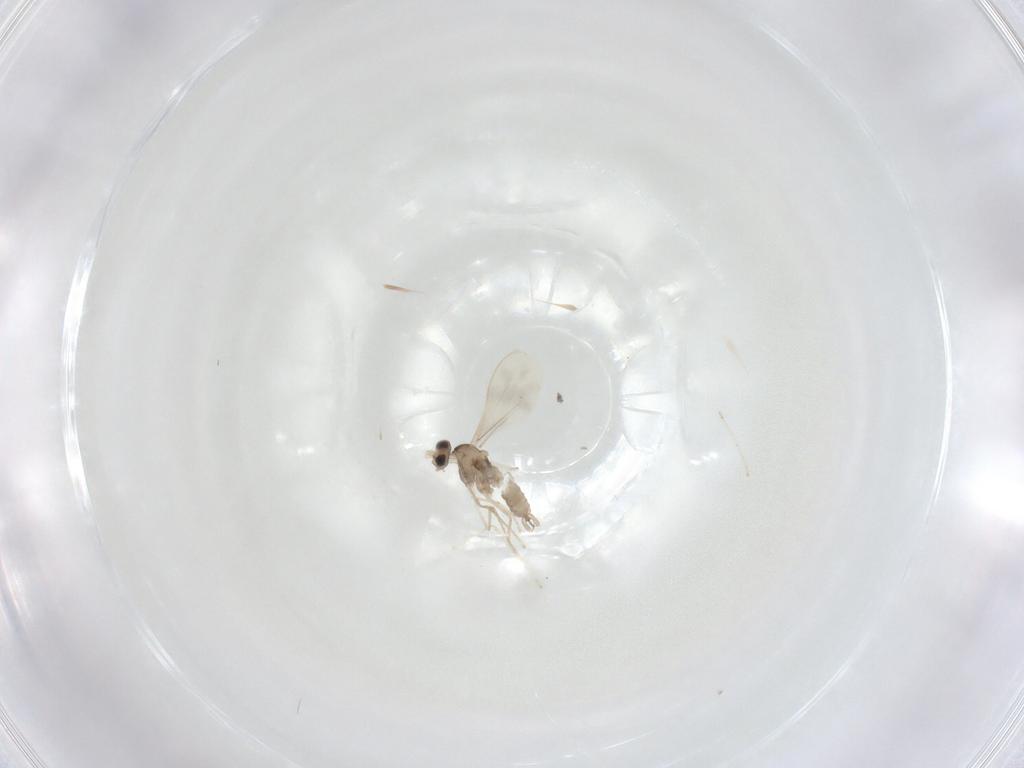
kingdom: Animalia
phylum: Arthropoda
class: Insecta
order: Diptera
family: Cecidomyiidae
